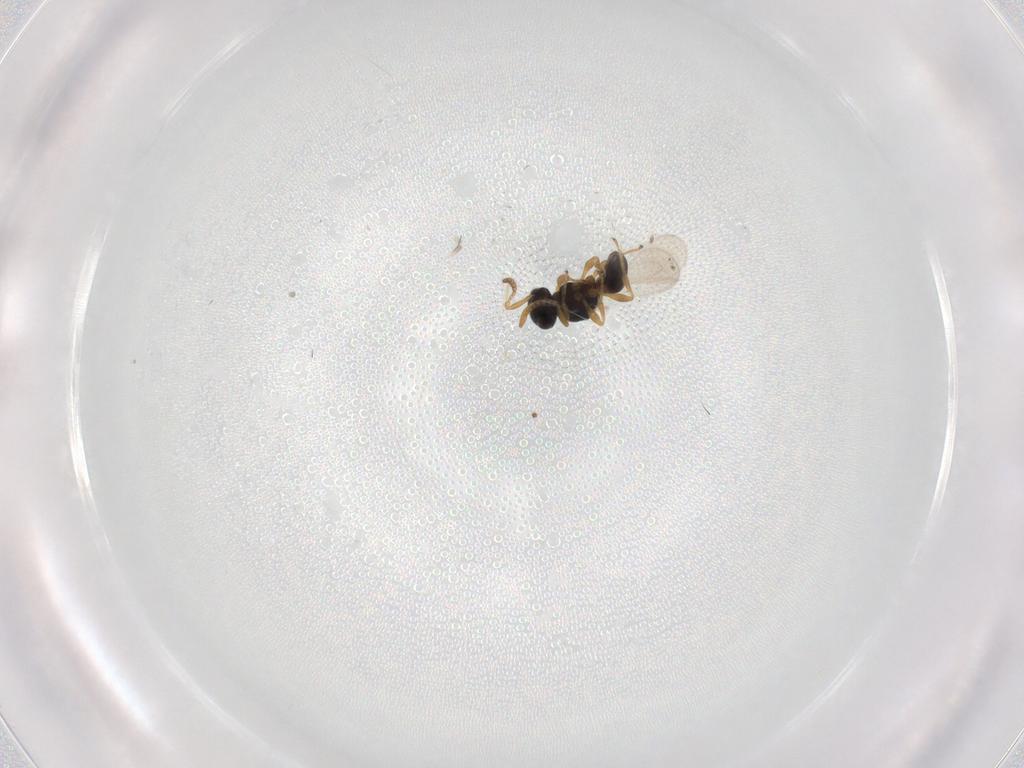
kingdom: Animalia
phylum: Arthropoda
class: Insecta
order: Hymenoptera
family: Platygastridae
